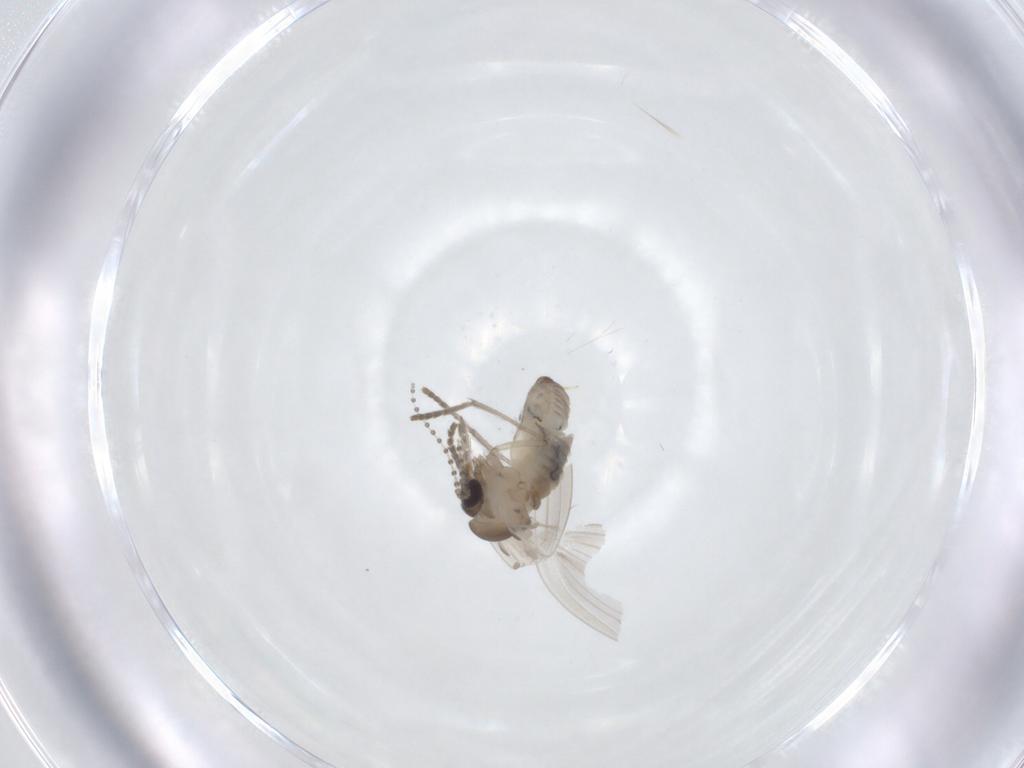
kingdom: Animalia
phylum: Arthropoda
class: Insecta
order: Diptera
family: Psychodidae
